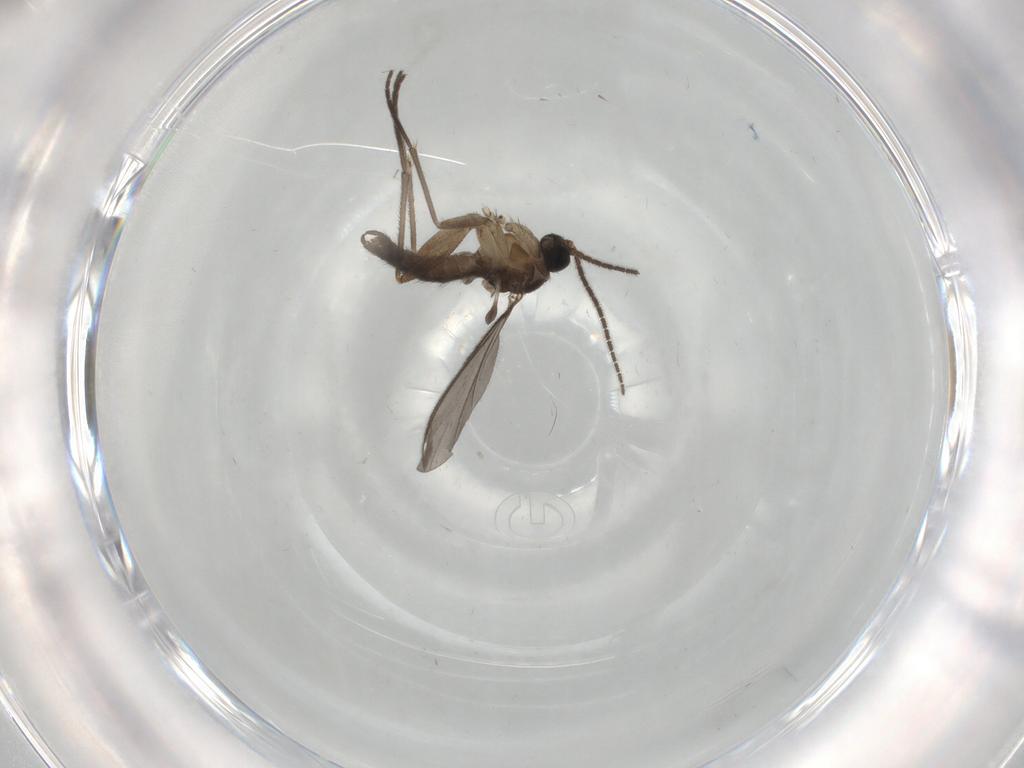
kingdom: Animalia
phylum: Arthropoda
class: Insecta
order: Diptera
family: Sciaridae
